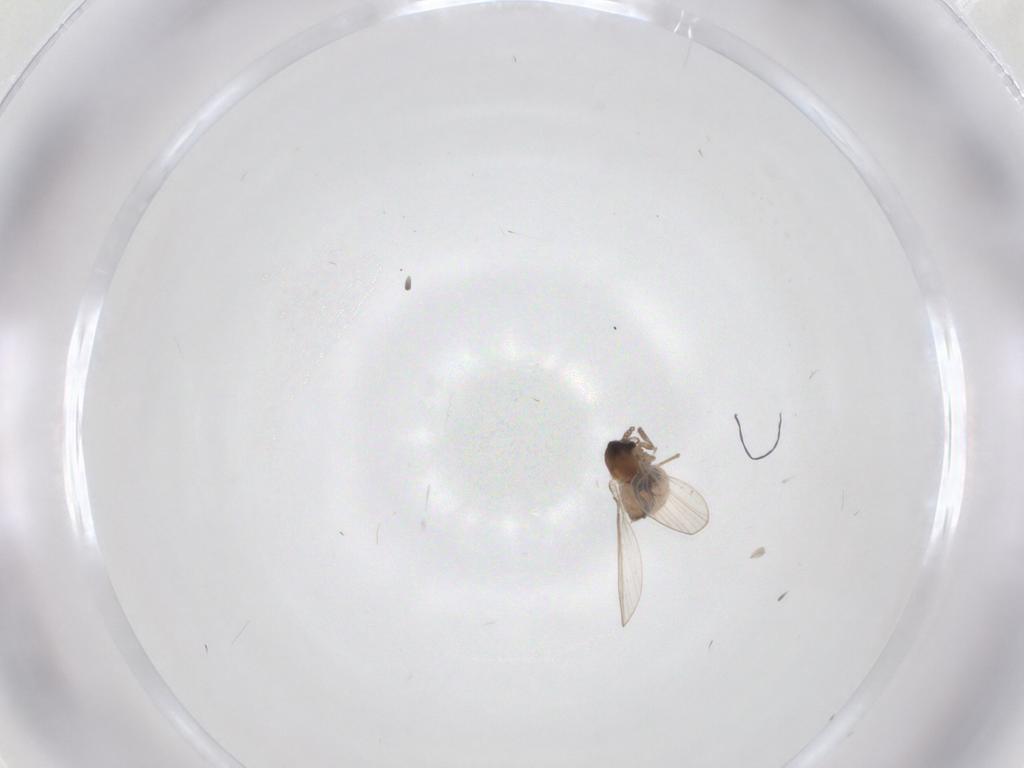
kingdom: Animalia
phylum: Arthropoda
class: Insecta
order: Diptera
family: Psychodidae
